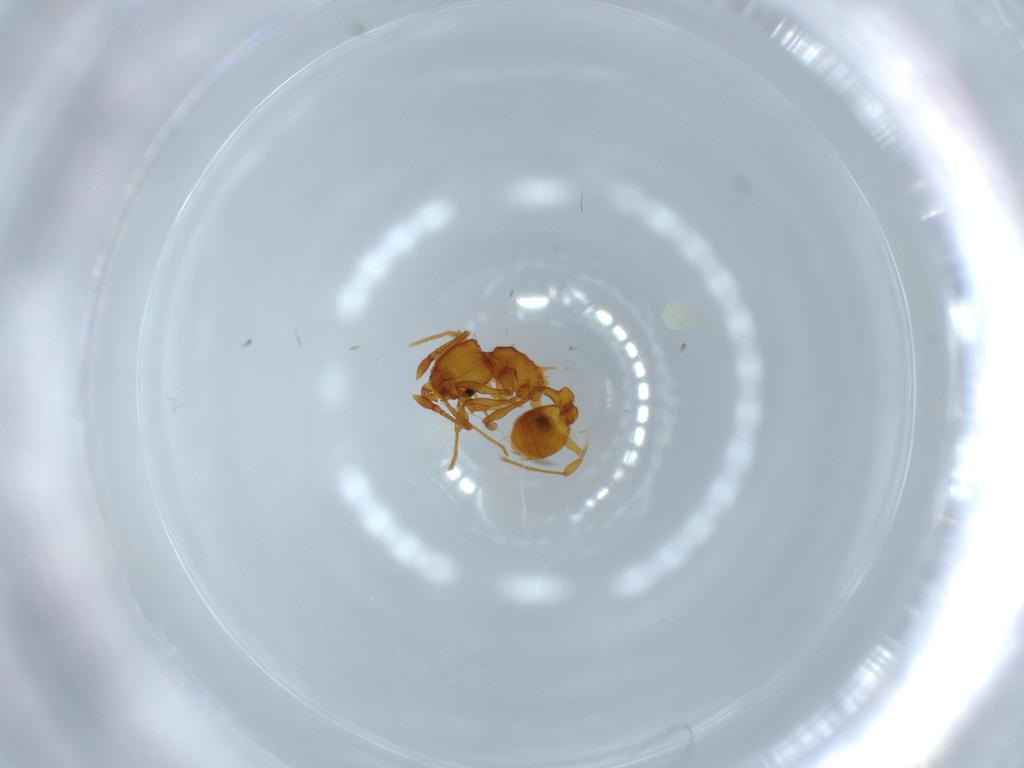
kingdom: Animalia
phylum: Arthropoda
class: Insecta
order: Hymenoptera
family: Formicidae
